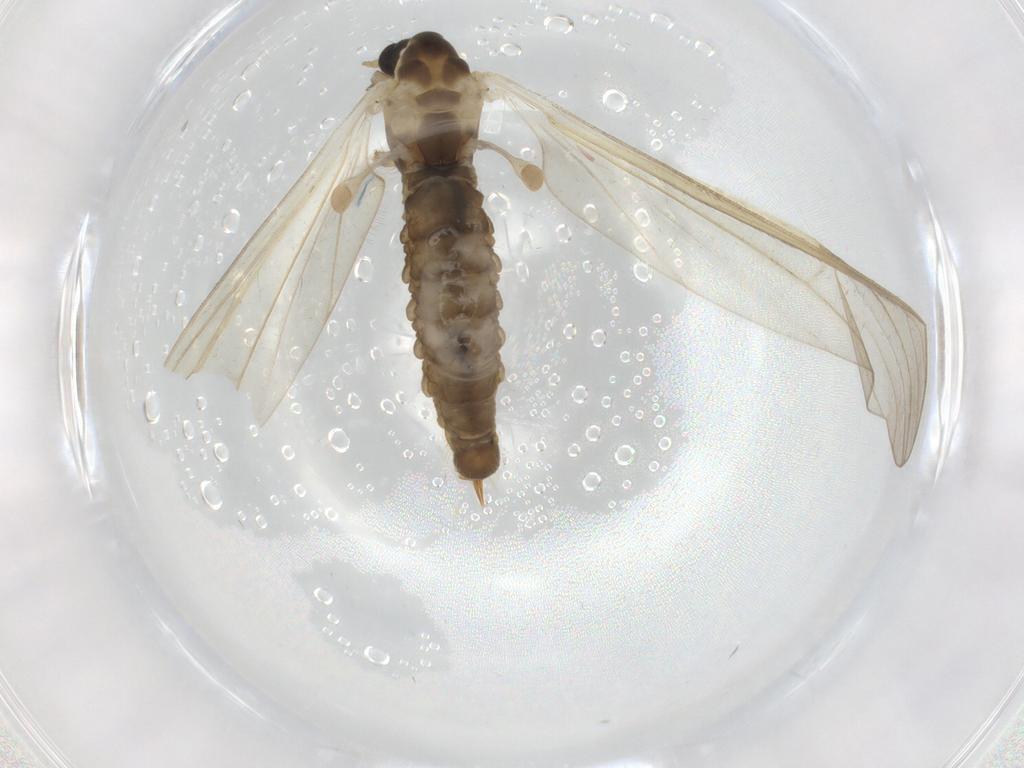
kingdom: Animalia
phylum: Arthropoda
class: Insecta
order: Diptera
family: Limoniidae
